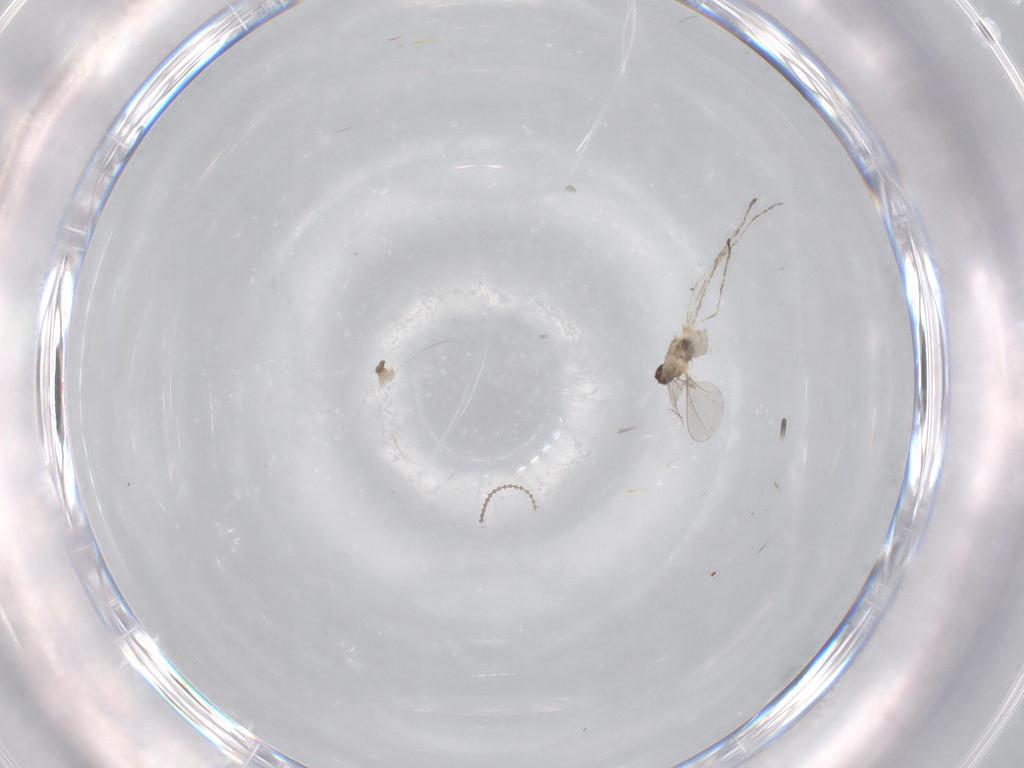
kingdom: Animalia
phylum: Arthropoda
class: Insecta
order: Diptera
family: Cecidomyiidae
